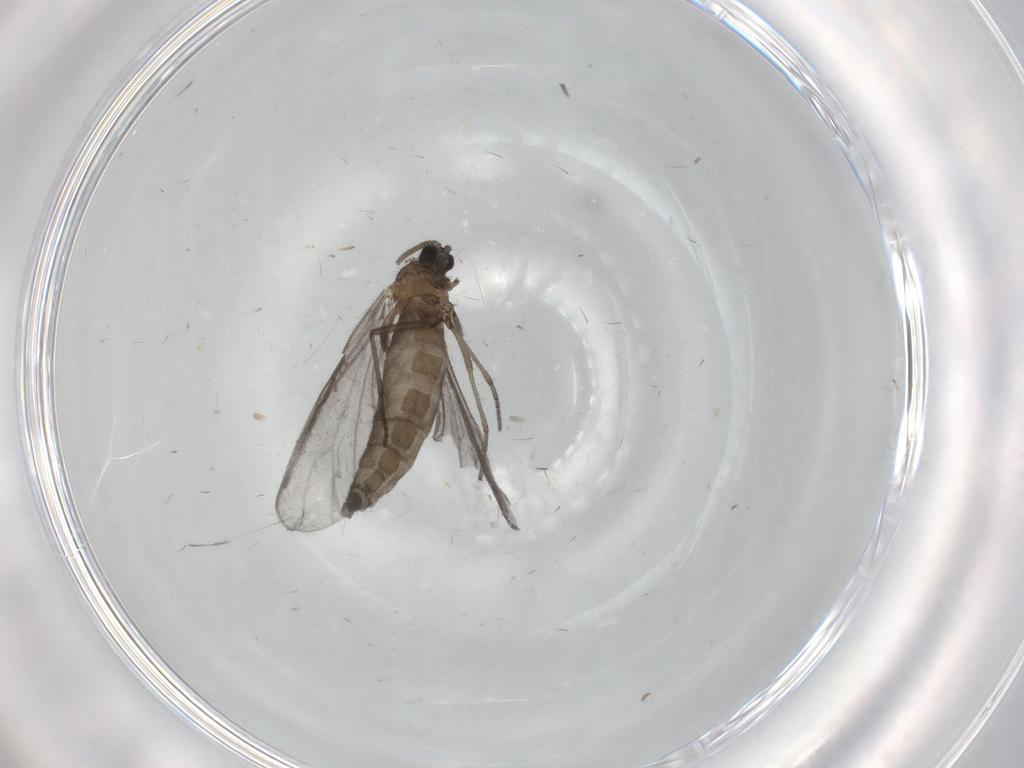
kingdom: Animalia
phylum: Arthropoda
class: Insecta
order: Diptera
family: Sciaridae
